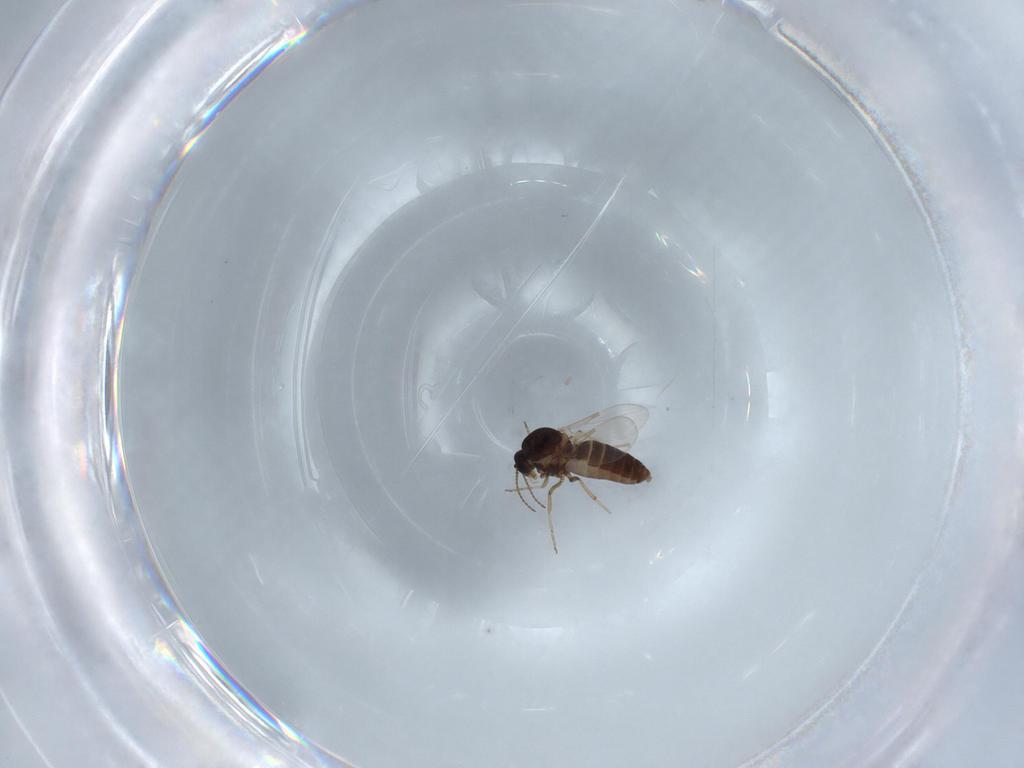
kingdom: Animalia
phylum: Arthropoda
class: Insecta
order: Diptera
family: Ceratopogonidae
